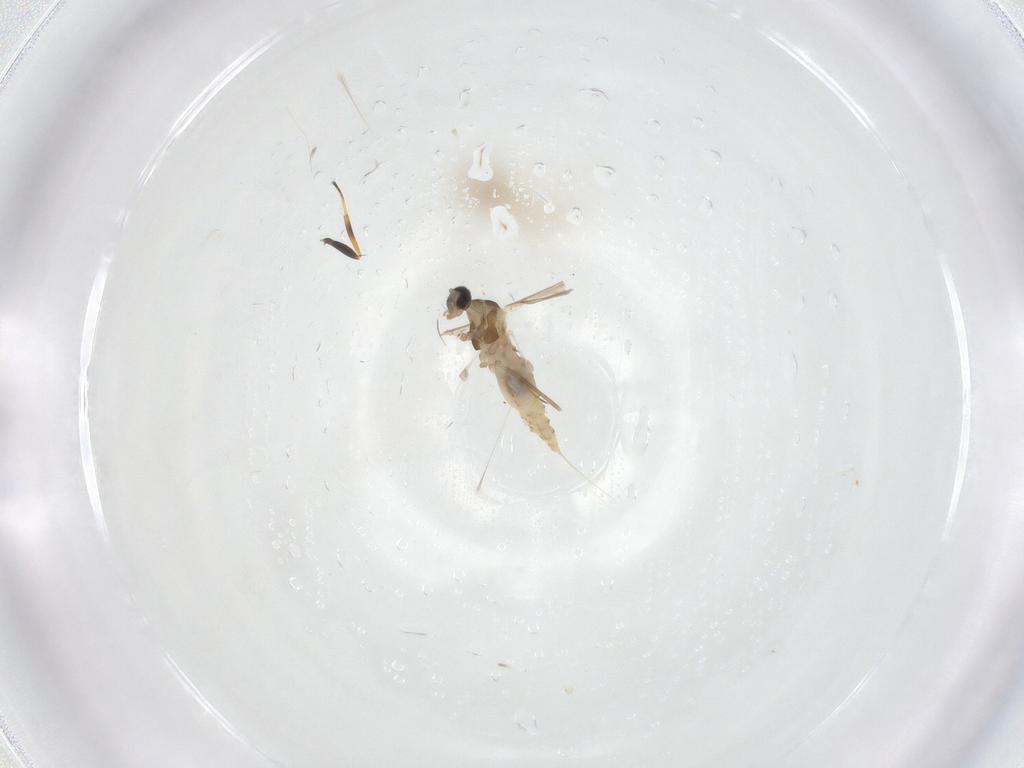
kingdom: Animalia
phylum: Arthropoda
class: Insecta
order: Diptera
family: Cecidomyiidae
